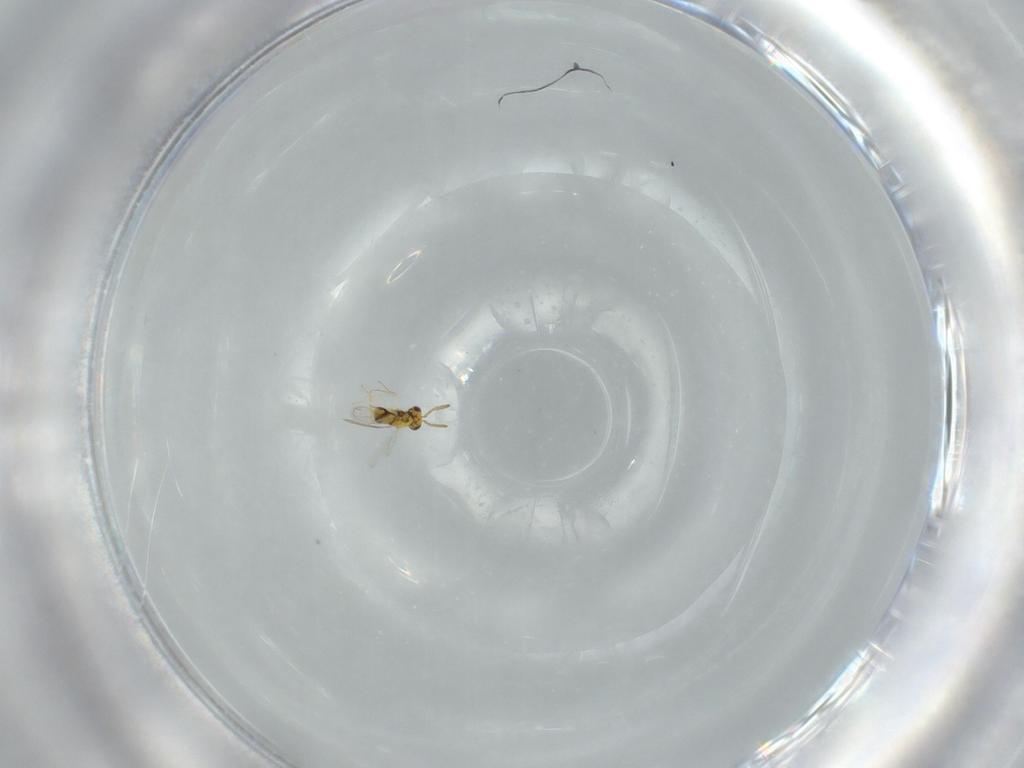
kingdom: Animalia
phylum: Arthropoda
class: Insecta
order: Hymenoptera
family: Aphelinidae
